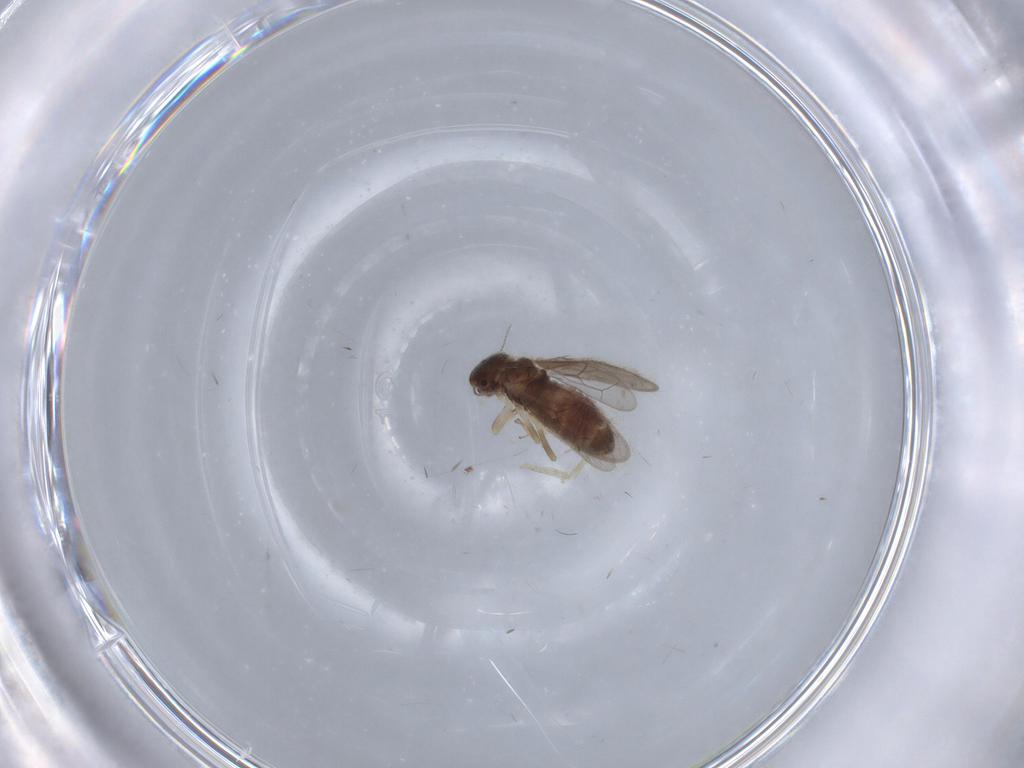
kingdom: Animalia
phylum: Arthropoda
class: Insecta
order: Psocodea
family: Archipsocidae
